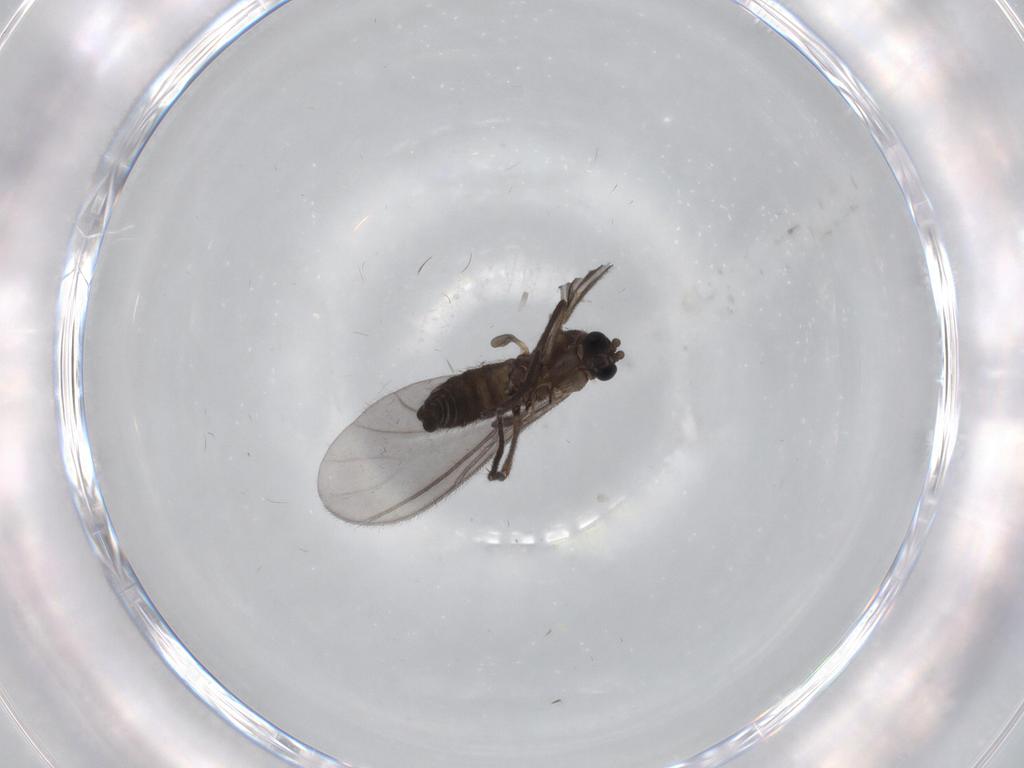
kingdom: Animalia
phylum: Arthropoda
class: Insecta
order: Diptera
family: Sciaridae
